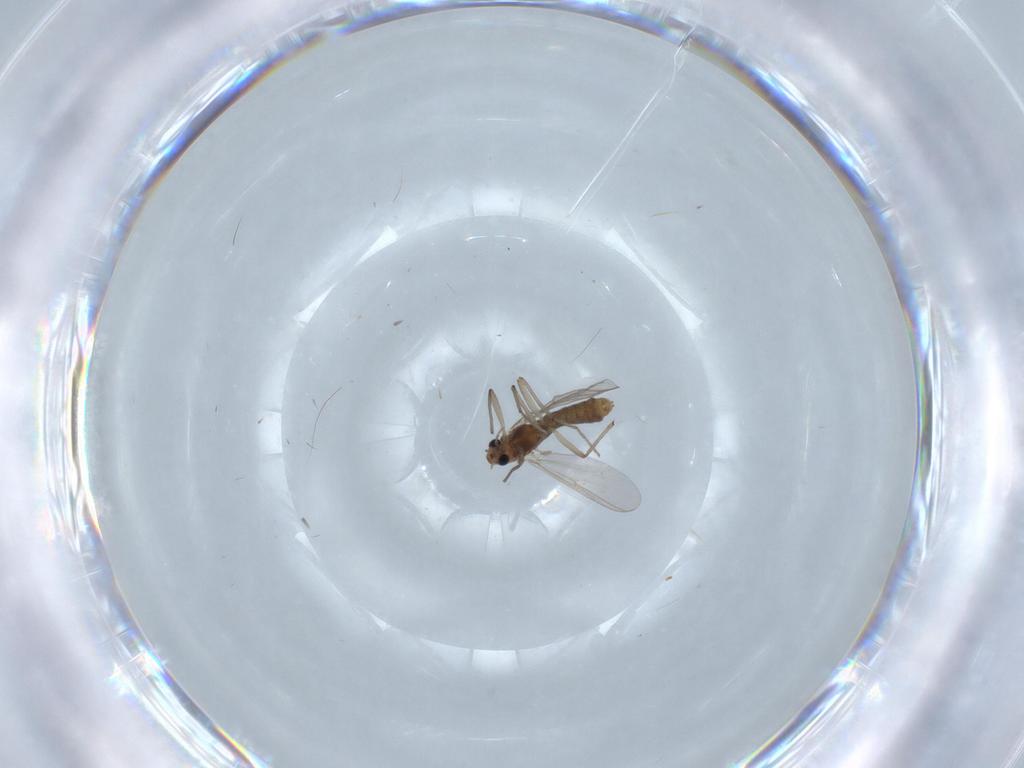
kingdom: Animalia
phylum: Arthropoda
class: Insecta
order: Diptera
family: Chironomidae
